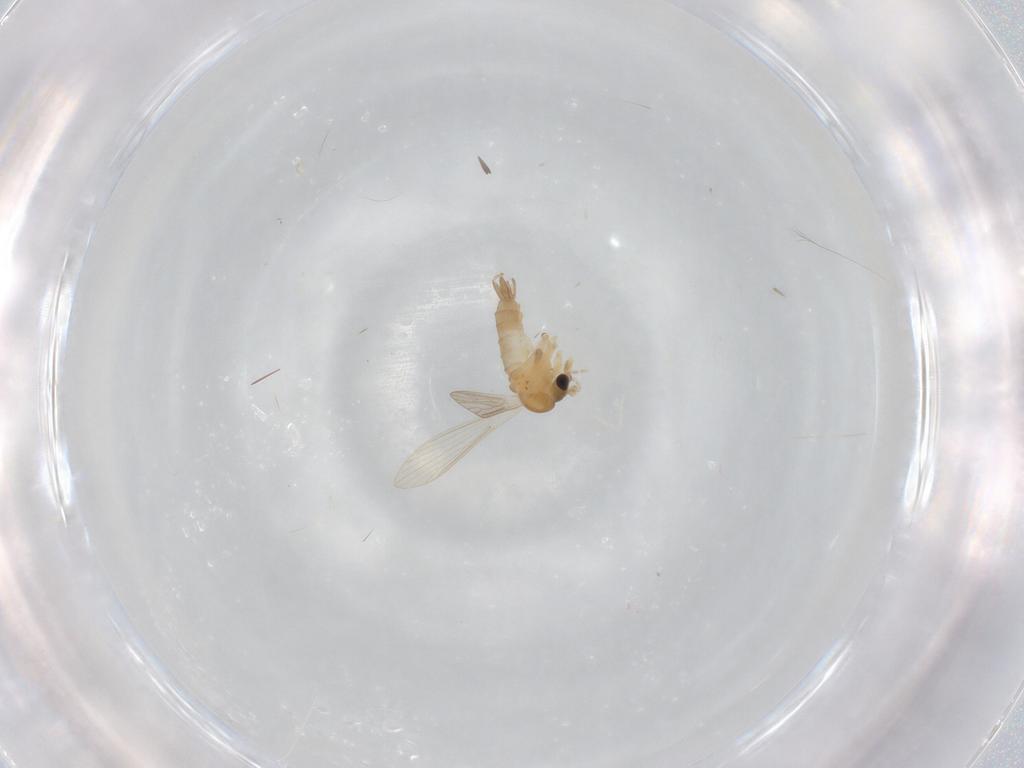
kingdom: Animalia
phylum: Arthropoda
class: Insecta
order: Diptera
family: Psychodidae
